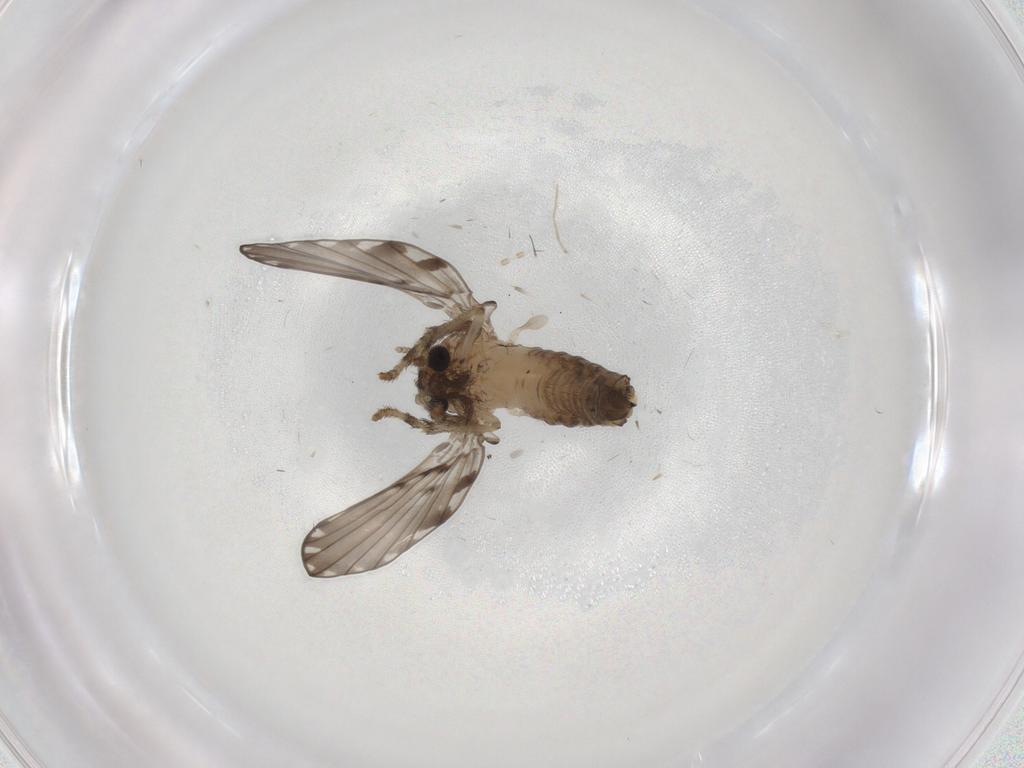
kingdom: Animalia
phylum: Arthropoda
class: Insecta
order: Diptera
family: Psychodidae
